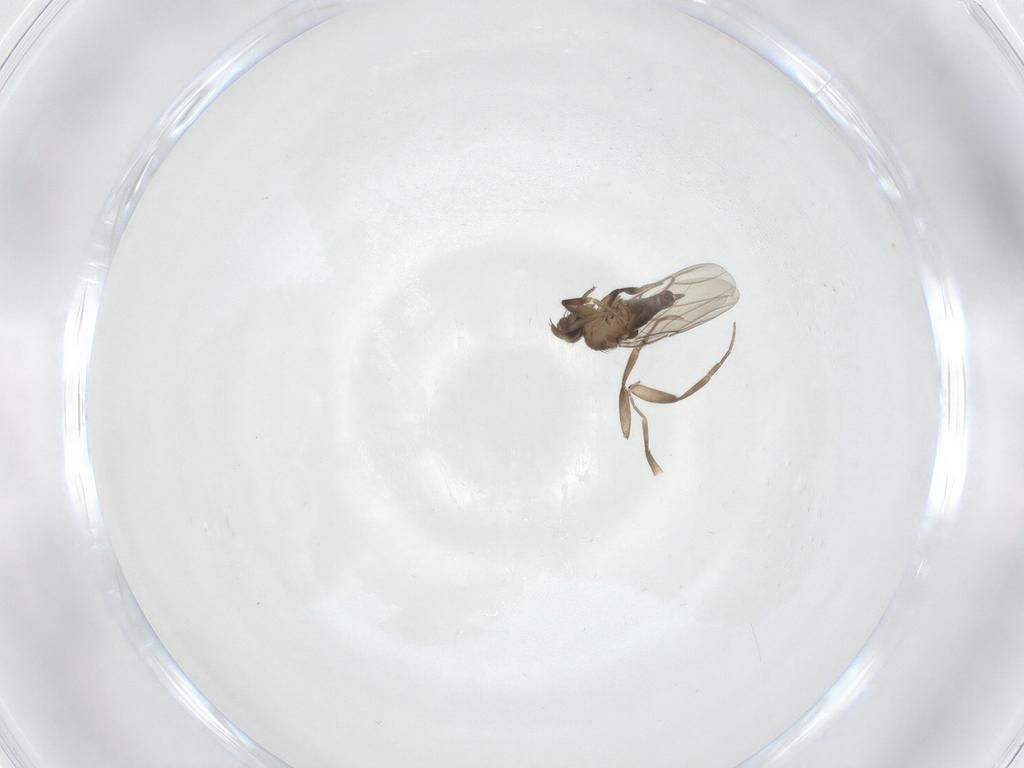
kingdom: Animalia
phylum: Arthropoda
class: Insecta
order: Diptera
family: Phoridae
